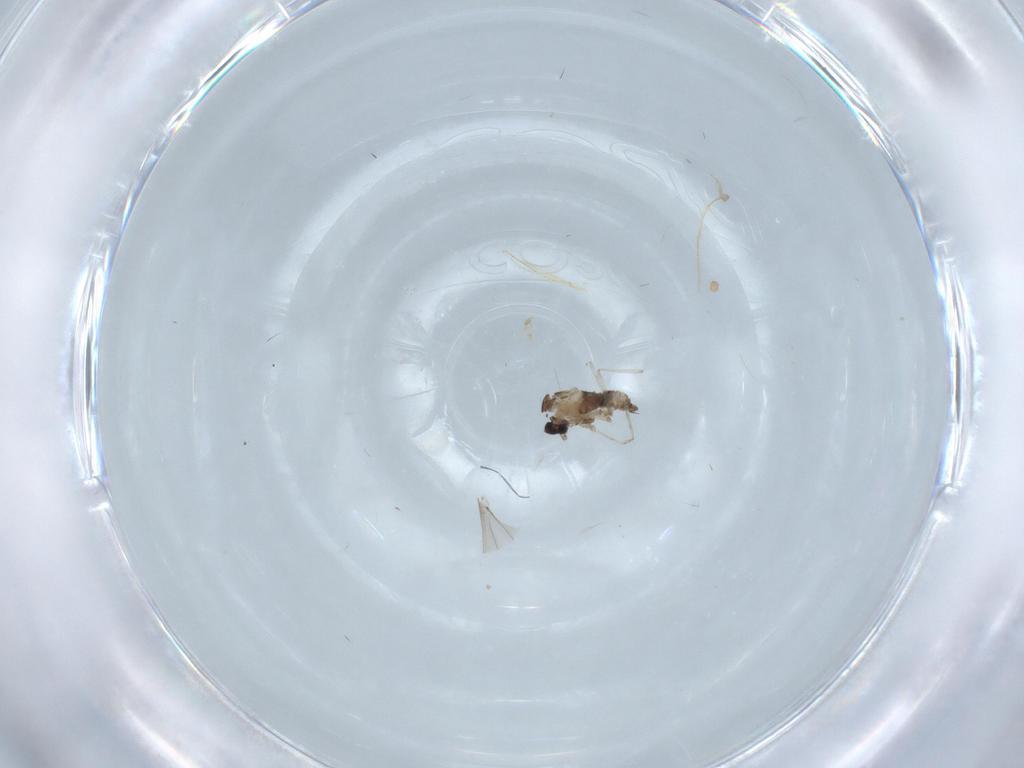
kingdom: Animalia
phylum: Arthropoda
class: Insecta
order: Diptera
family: Cecidomyiidae
